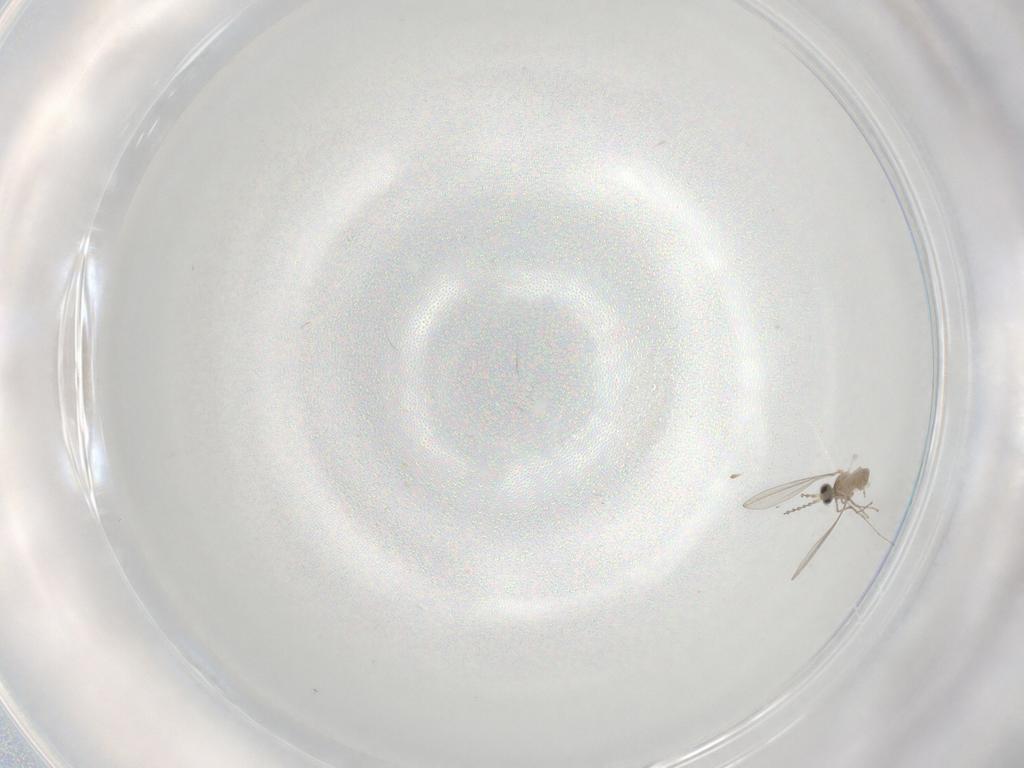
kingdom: Animalia
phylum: Arthropoda
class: Insecta
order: Diptera
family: Cecidomyiidae
